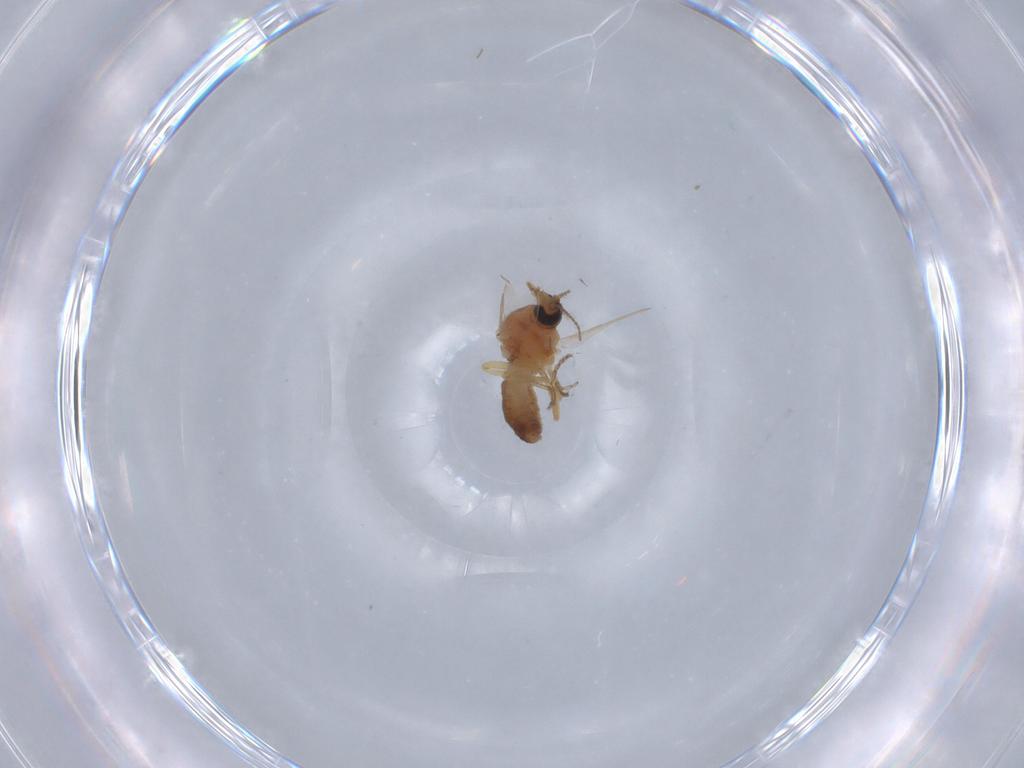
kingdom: Animalia
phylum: Arthropoda
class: Insecta
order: Diptera
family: Ceratopogonidae
